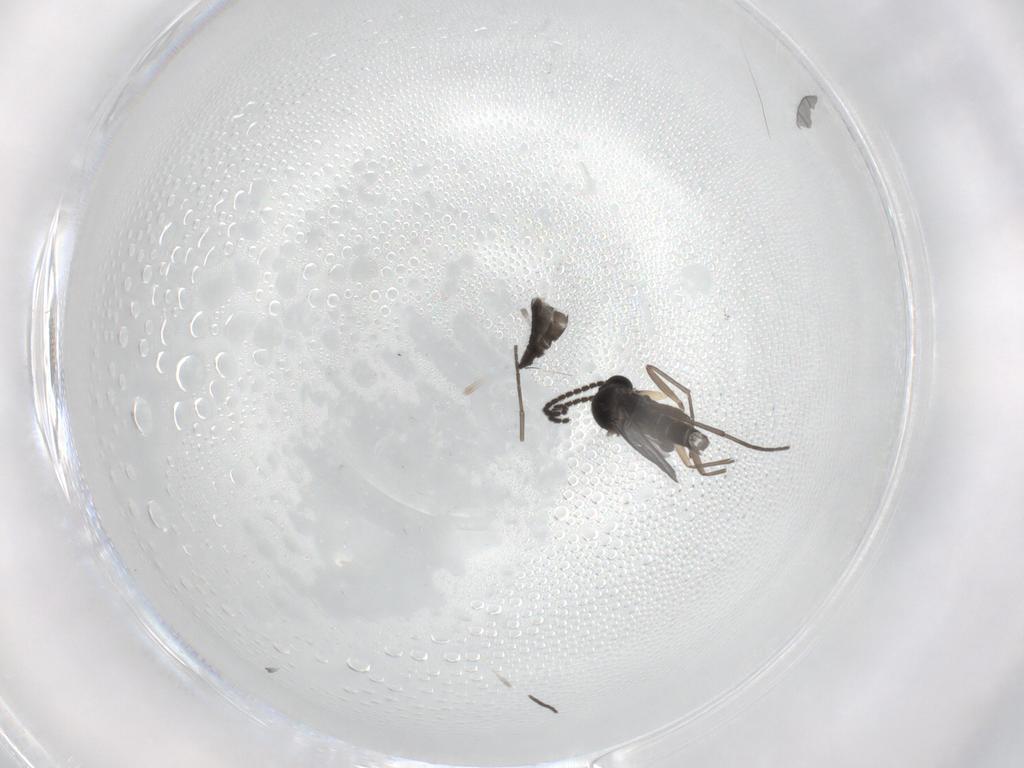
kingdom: Animalia
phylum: Arthropoda
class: Insecta
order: Diptera
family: Sciaridae
